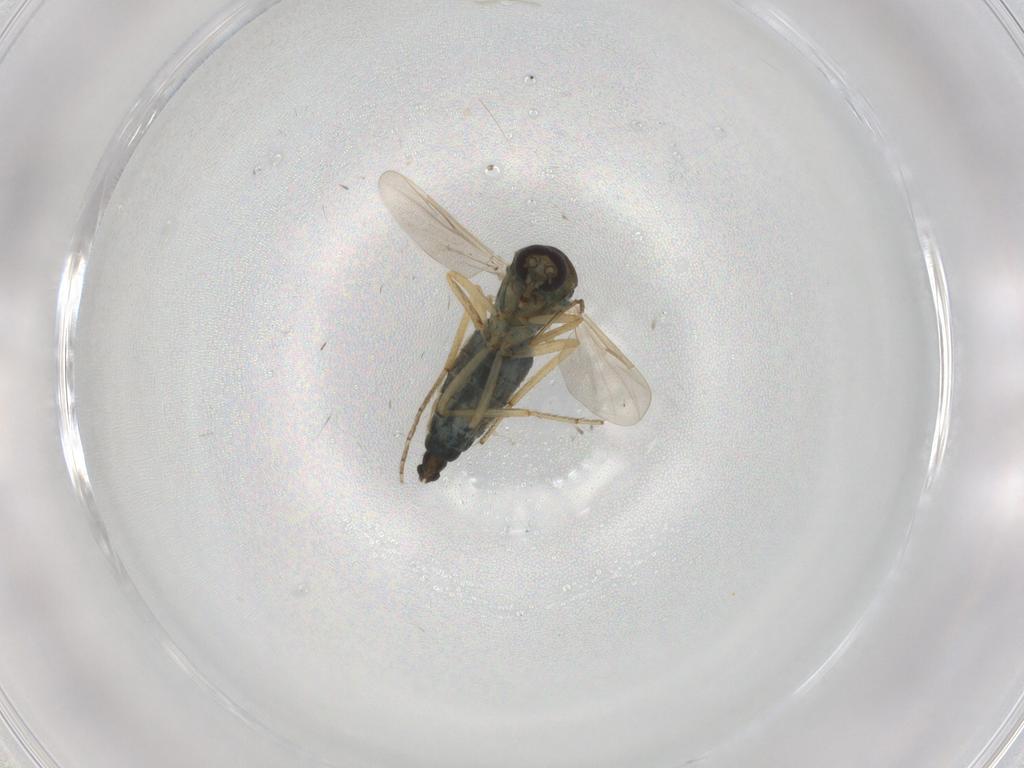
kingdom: Animalia
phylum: Arthropoda
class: Insecta
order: Diptera
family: Ceratopogonidae
